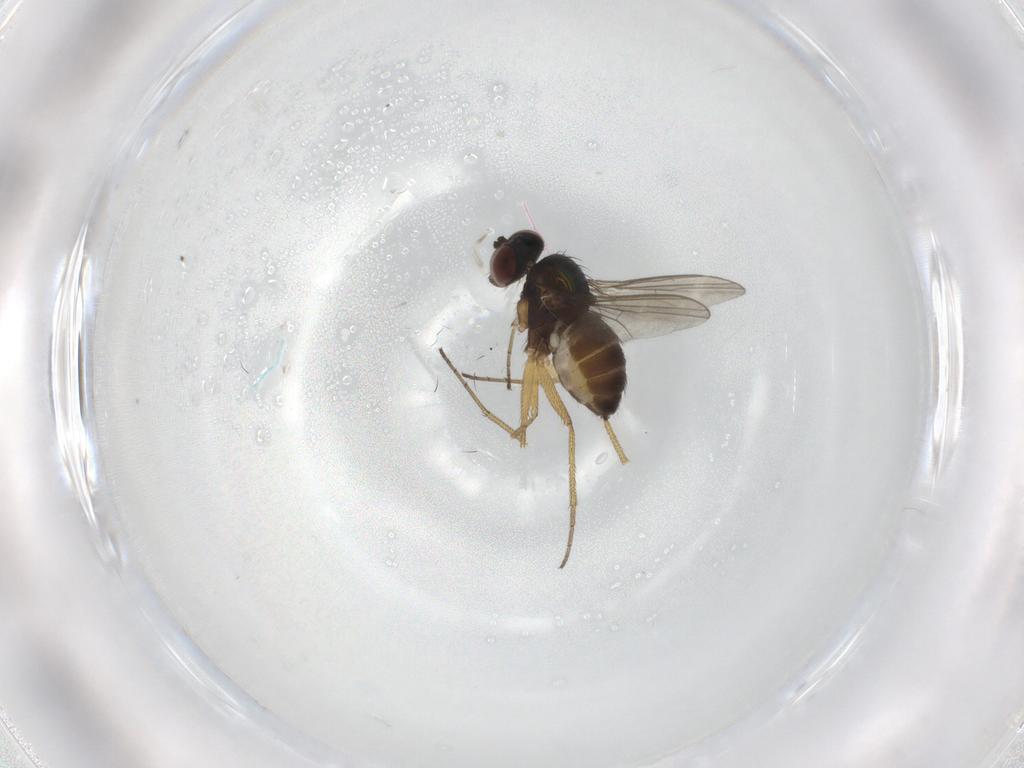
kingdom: Animalia
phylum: Arthropoda
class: Insecta
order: Diptera
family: Dolichopodidae
